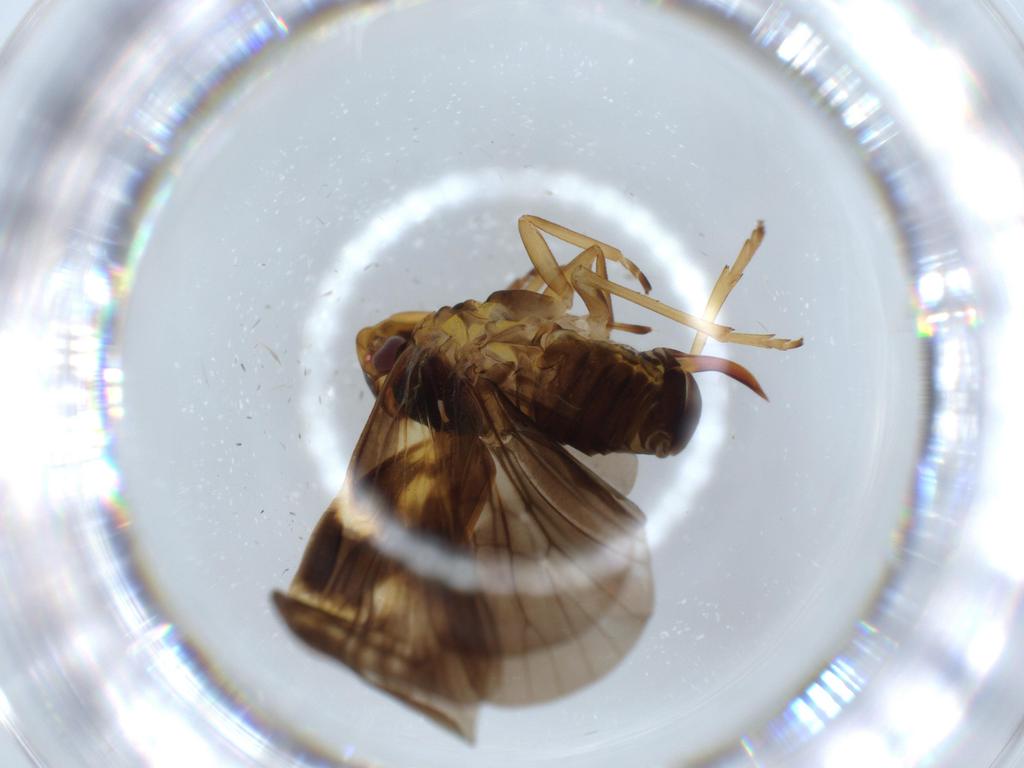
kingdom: Animalia
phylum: Arthropoda
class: Insecta
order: Hemiptera
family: Cixiidae
